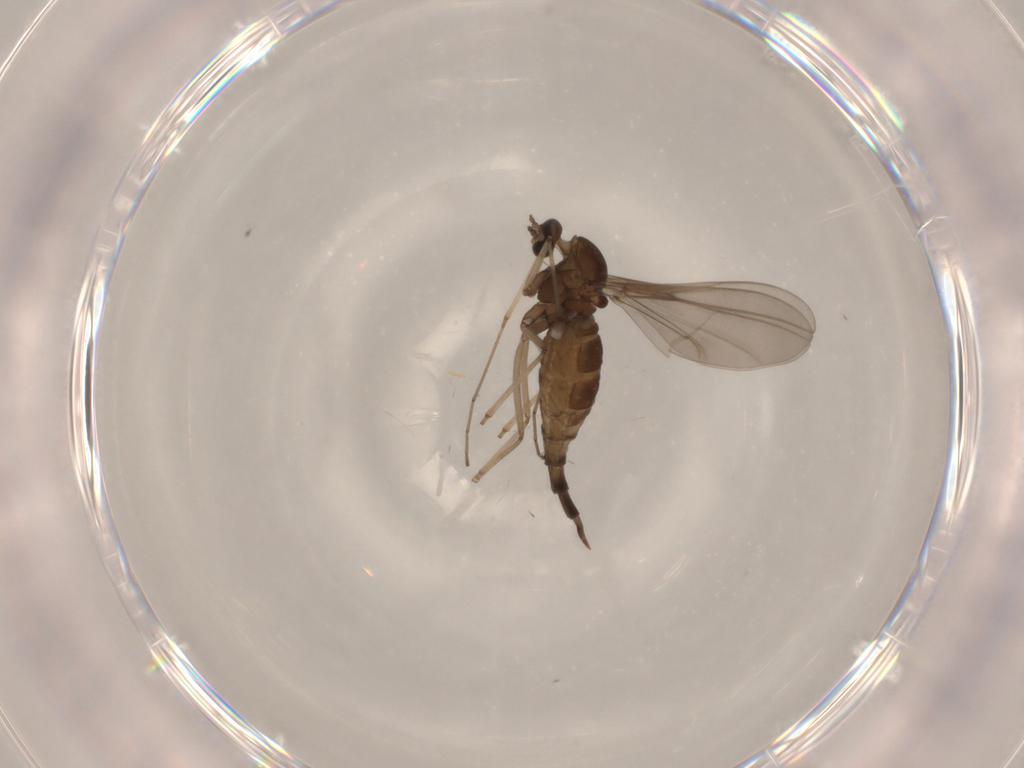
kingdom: Animalia
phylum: Arthropoda
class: Insecta
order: Diptera
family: Cecidomyiidae
